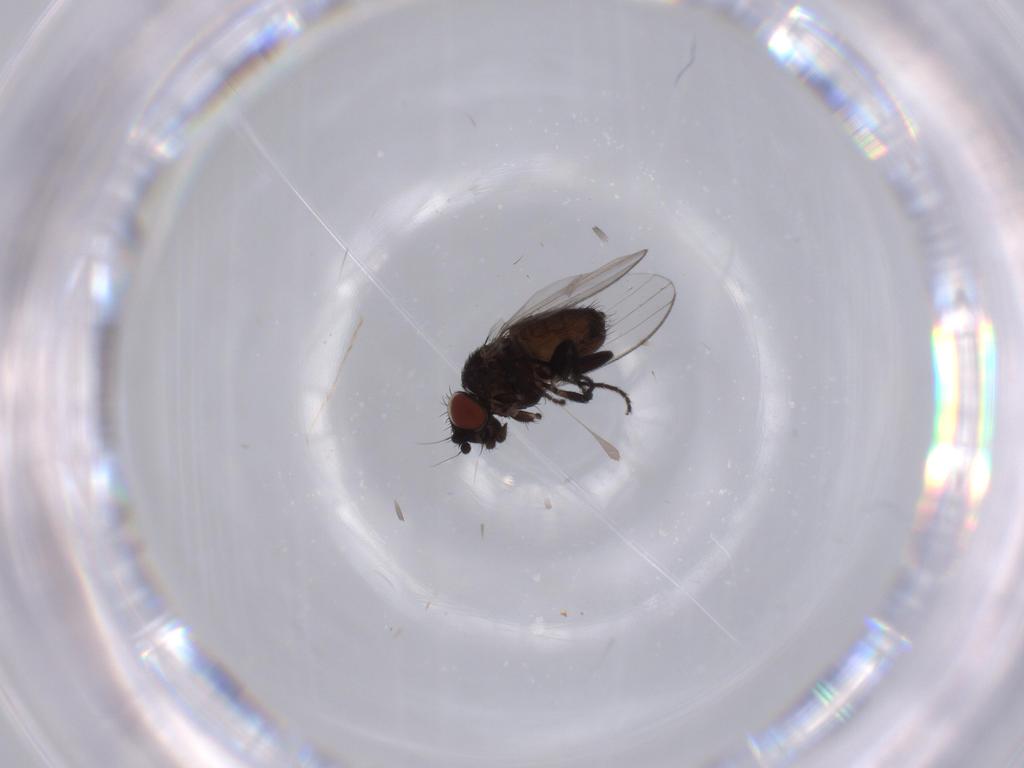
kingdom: Animalia
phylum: Arthropoda
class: Insecta
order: Diptera
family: Milichiidae
